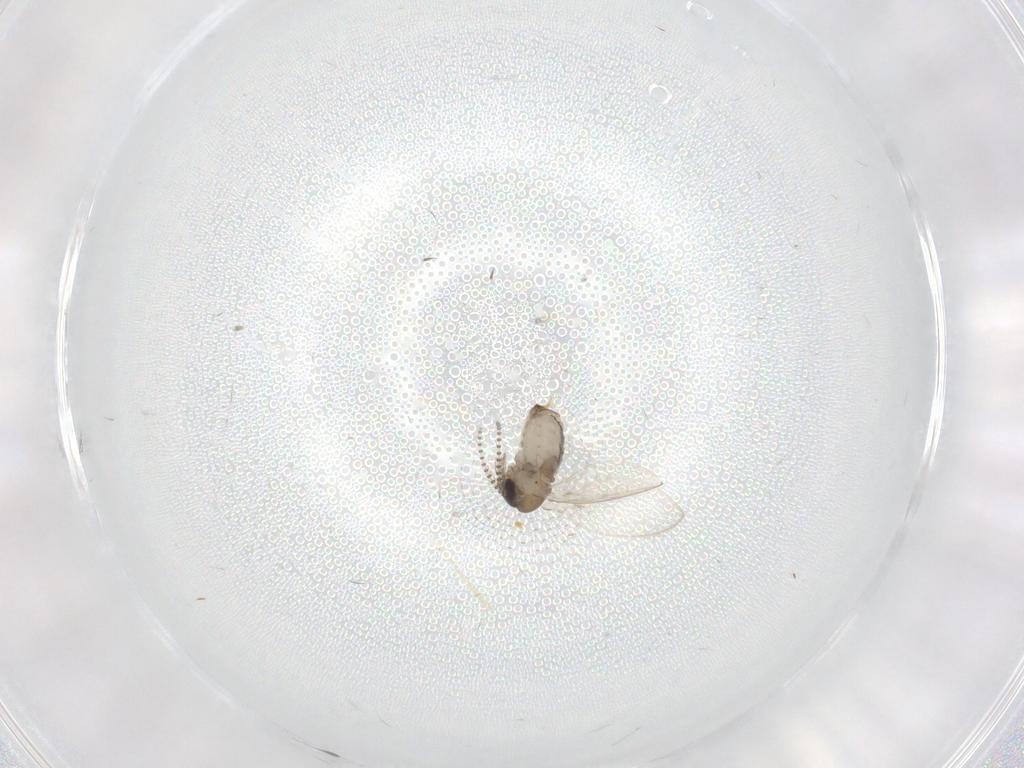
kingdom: Animalia
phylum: Arthropoda
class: Insecta
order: Diptera
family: Psychodidae
